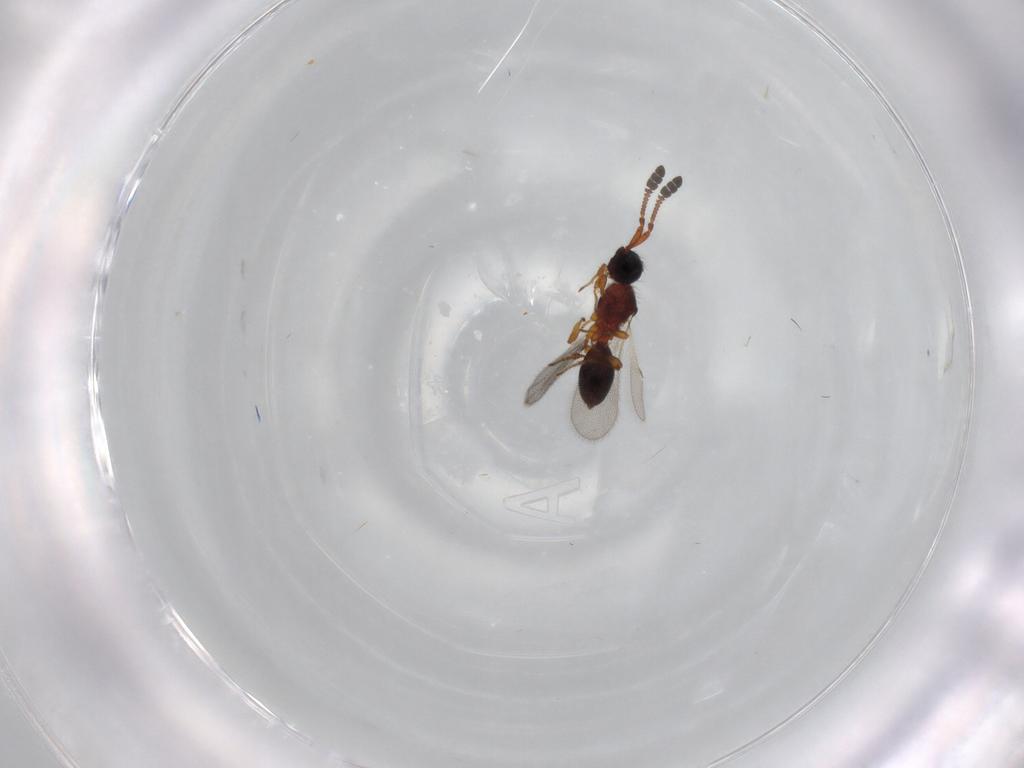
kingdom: Animalia
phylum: Arthropoda
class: Insecta
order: Hymenoptera
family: Diapriidae
